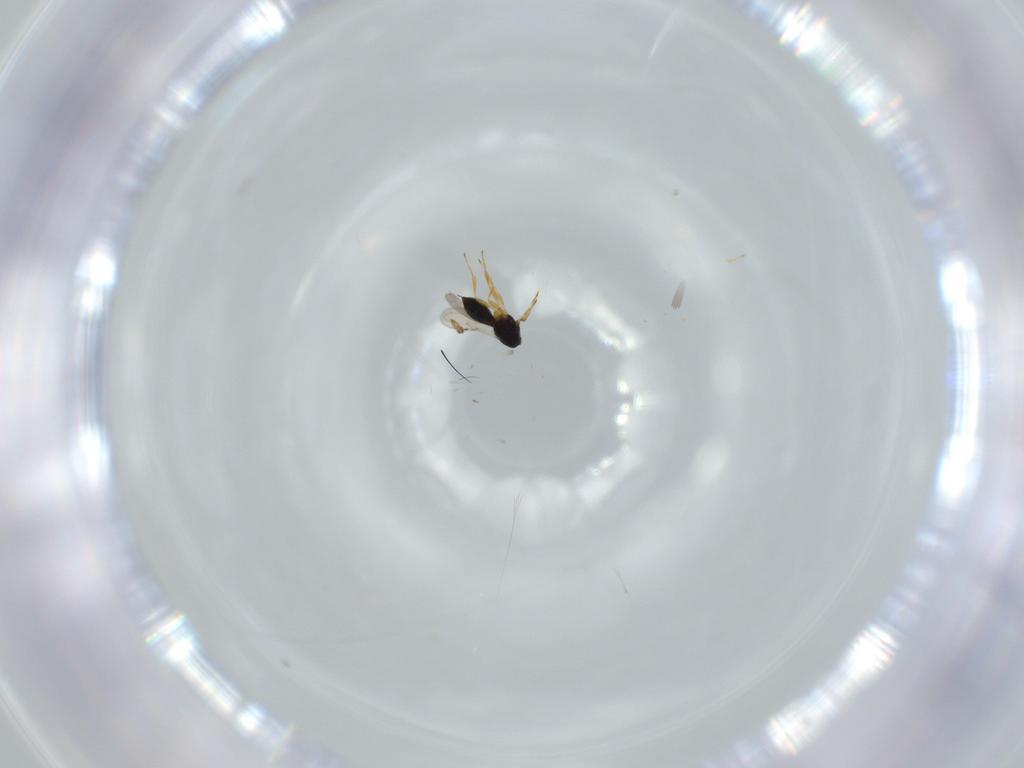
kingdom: Animalia
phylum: Arthropoda
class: Insecta
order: Hymenoptera
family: Scelionidae
